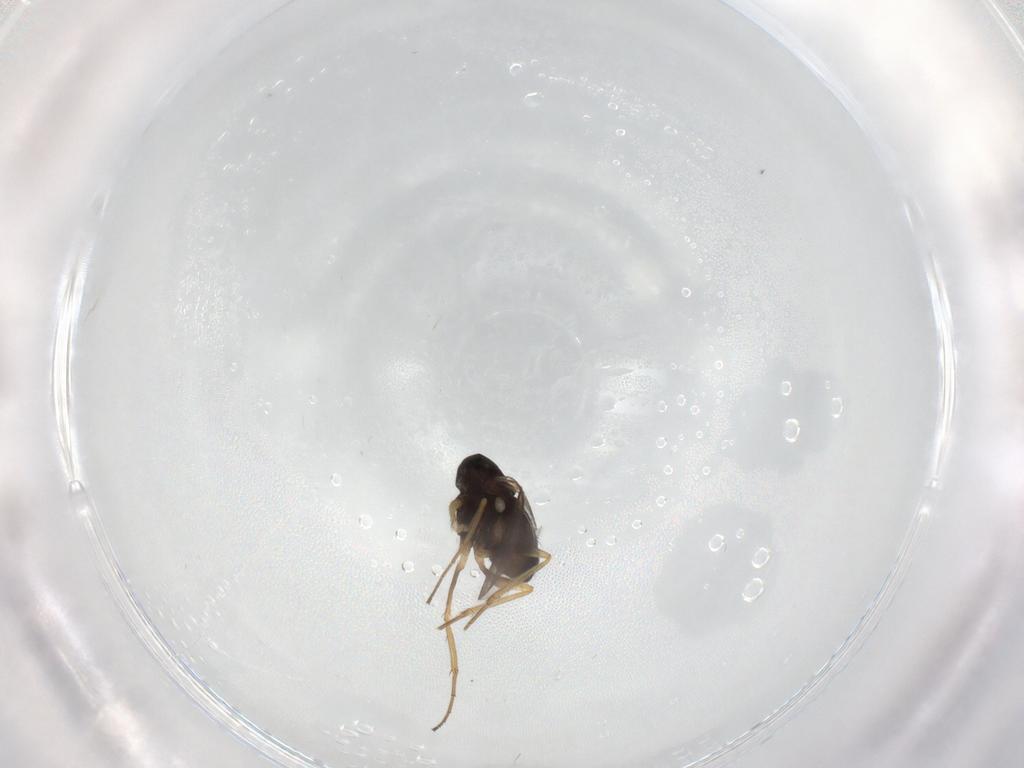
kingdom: Animalia
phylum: Arthropoda
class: Insecta
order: Diptera
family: Dolichopodidae
